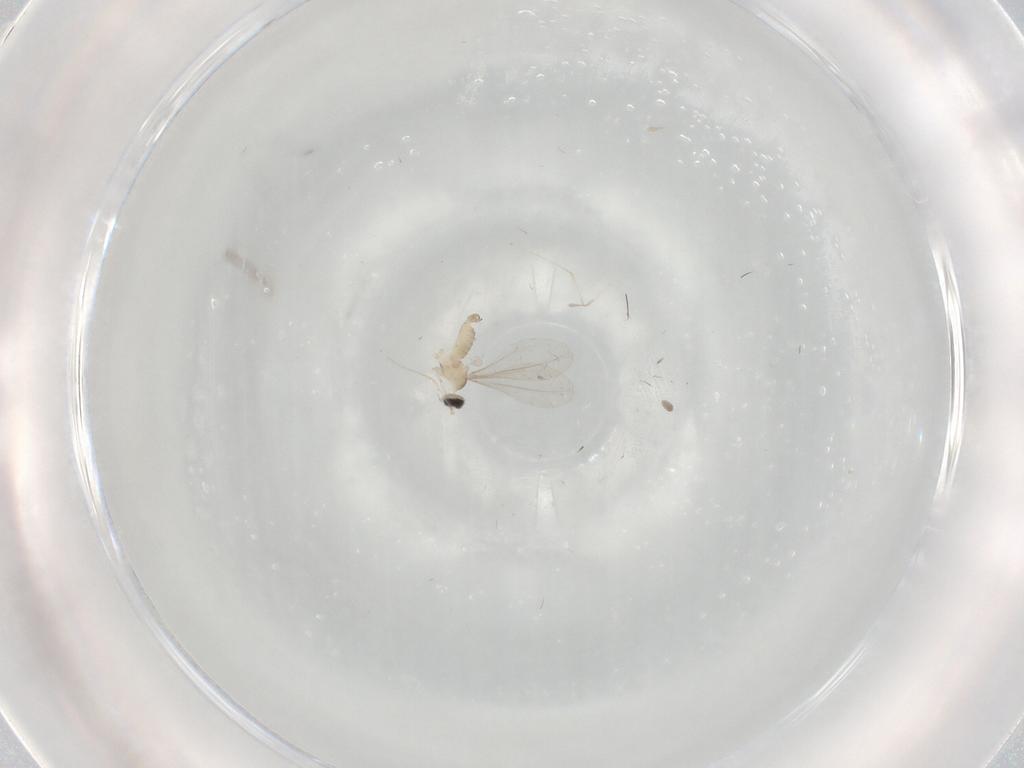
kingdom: Animalia
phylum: Arthropoda
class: Insecta
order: Diptera
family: Cecidomyiidae
